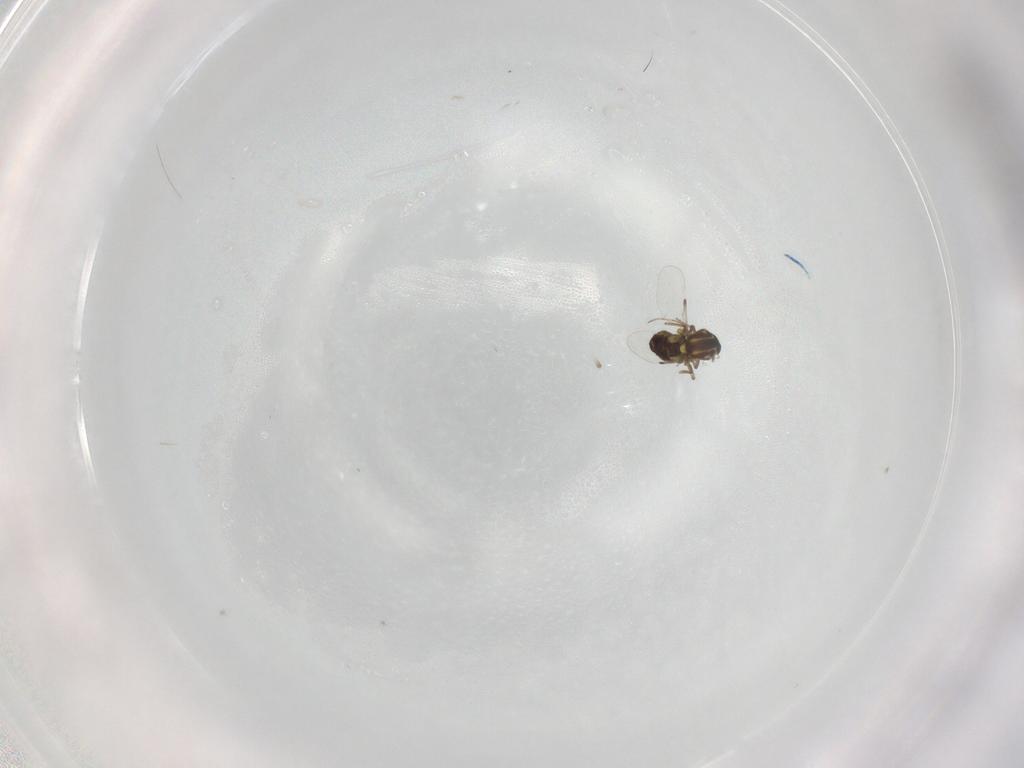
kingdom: Animalia
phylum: Arthropoda
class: Insecta
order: Diptera
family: Ceratopogonidae
